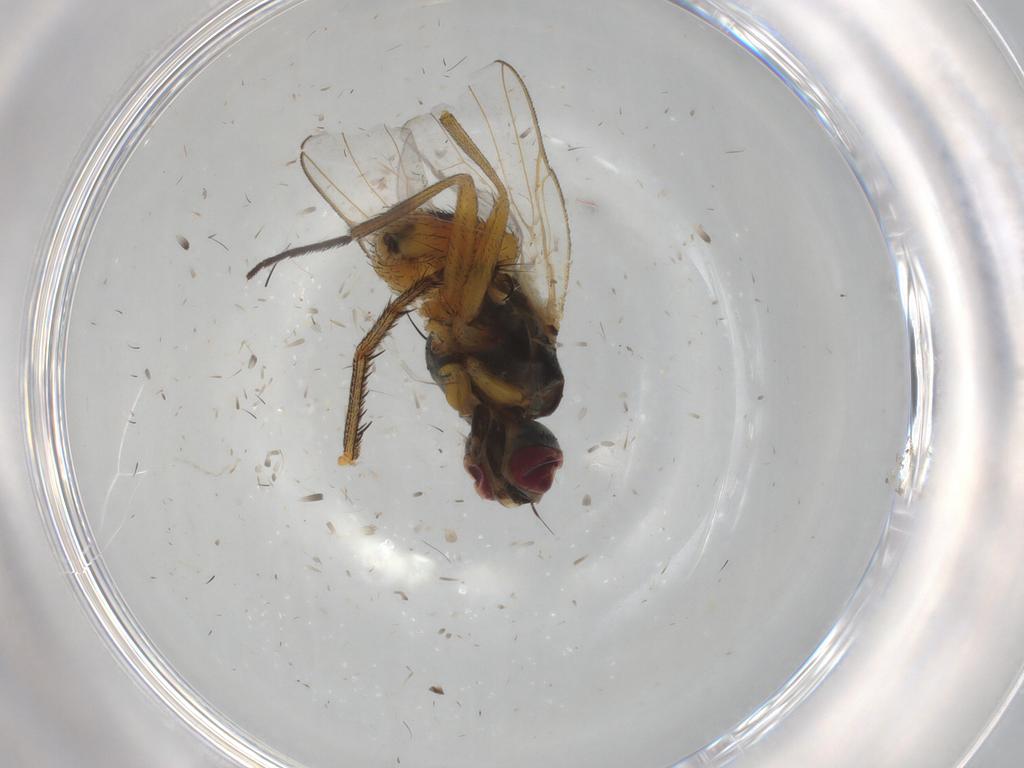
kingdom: Animalia
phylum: Arthropoda
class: Insecta
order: Diptera
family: Muscidae
